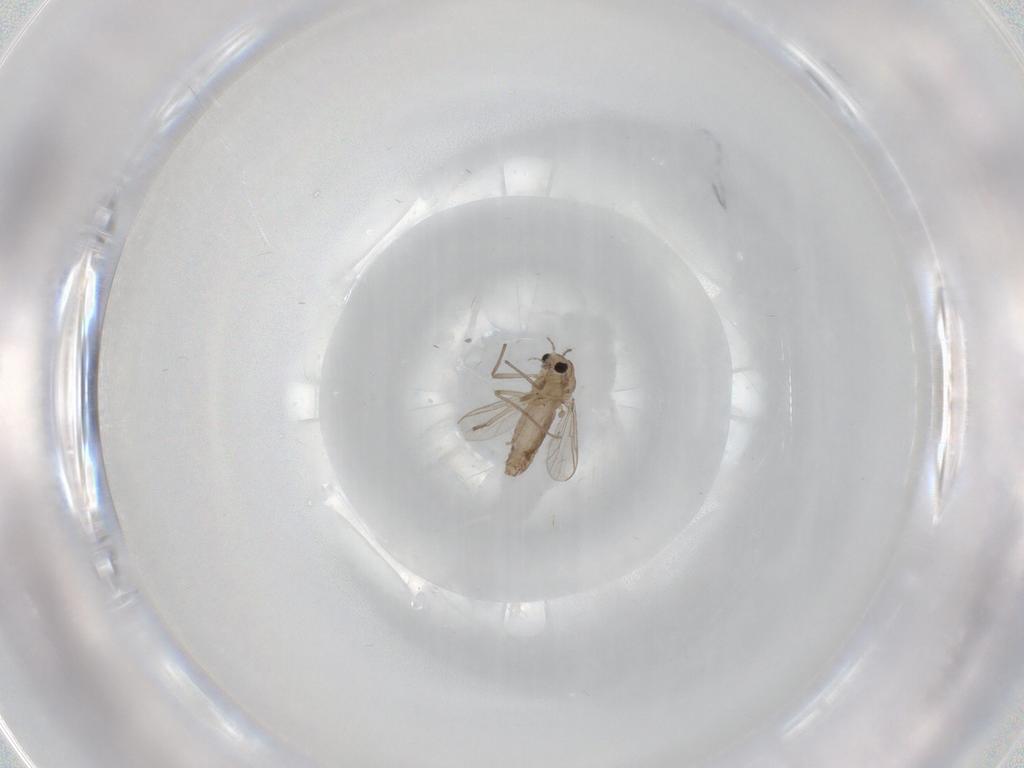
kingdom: Animalia
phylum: Arthropoda
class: Insecta
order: Diptera
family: Chironomidae
